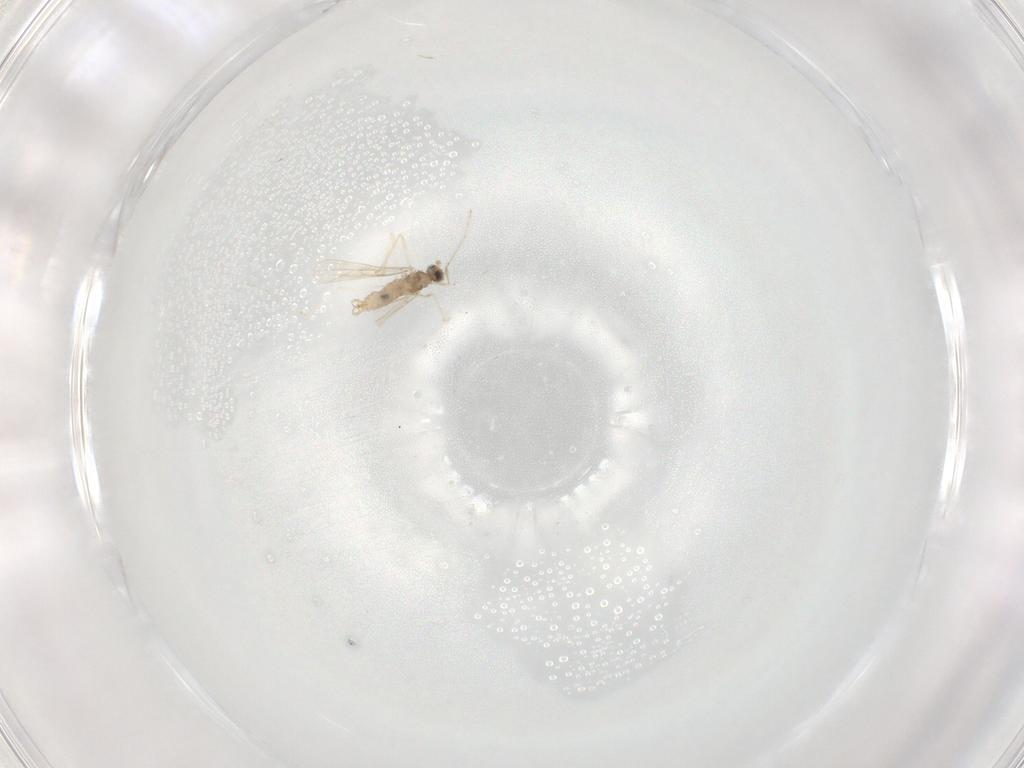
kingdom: Animalia
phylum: Arthropoda
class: Insecta
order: Diptera
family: Cecidomyiidae
